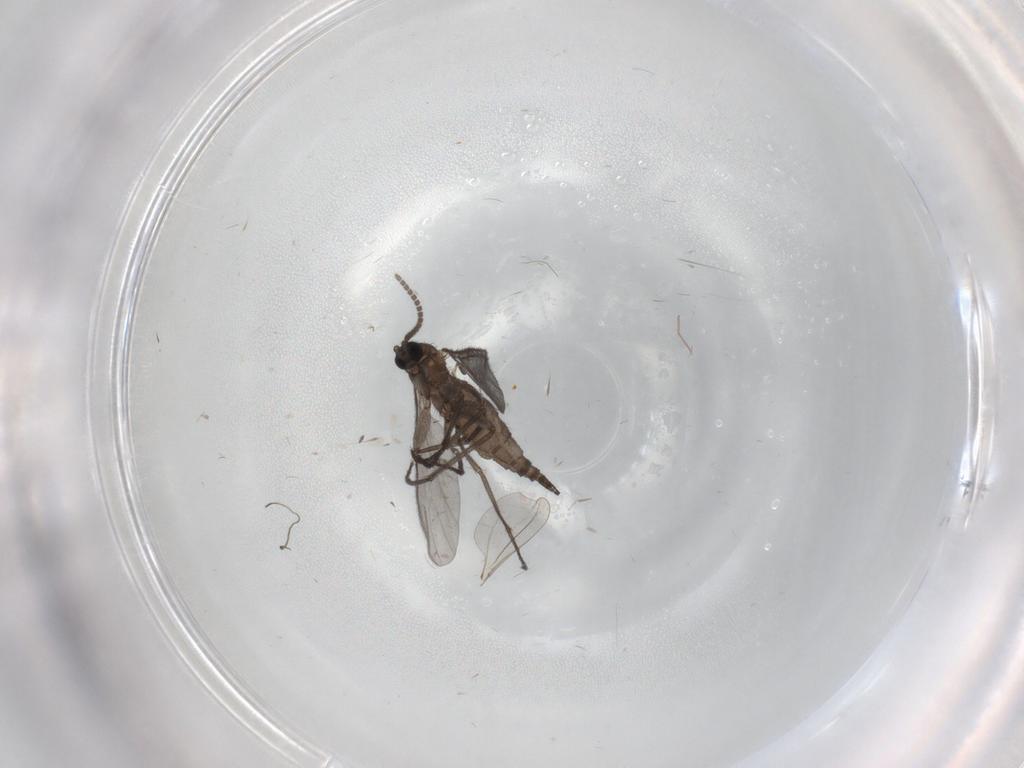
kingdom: Animalia
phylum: Arthropoda
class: Insecta
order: Diptera
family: Sciaridae
